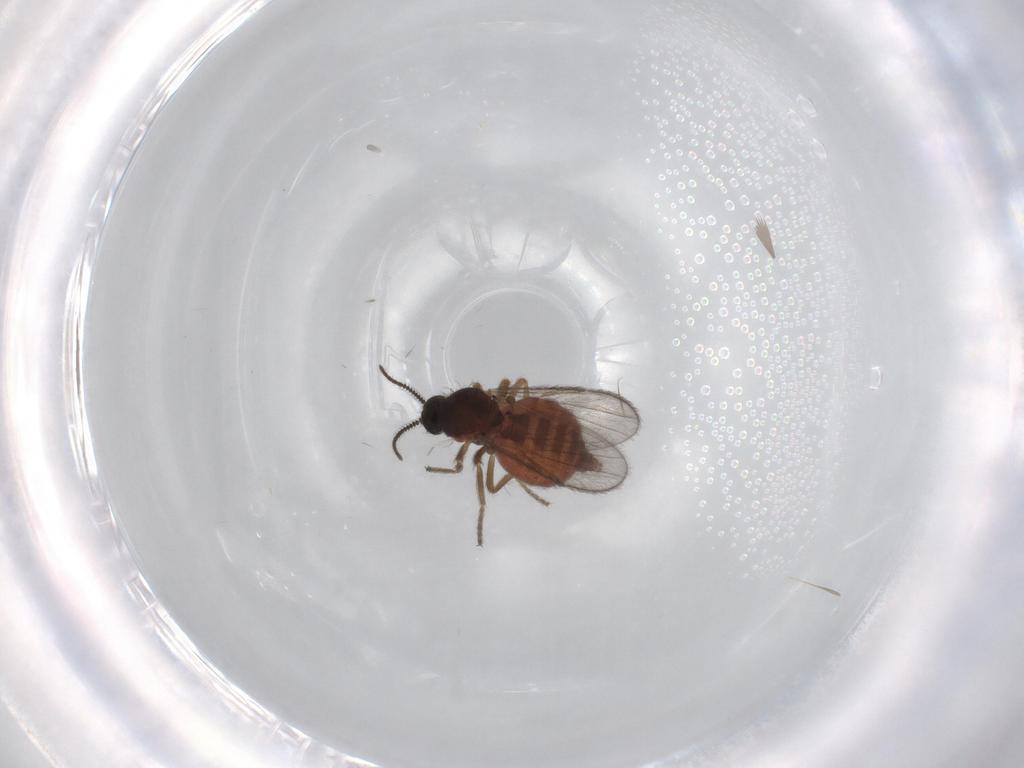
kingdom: Animalia
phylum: Arthropoda
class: Insecta
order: Diptera
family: Ceratopogonidae
